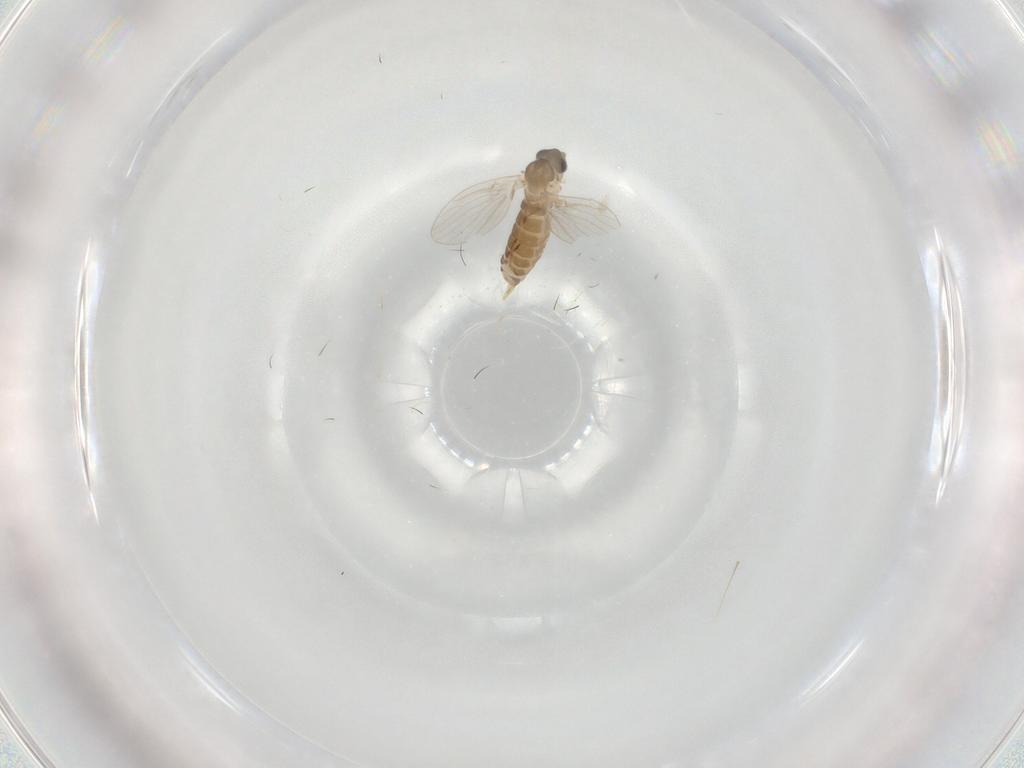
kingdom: Animalia
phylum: Arthropoda
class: Insecta
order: Diptera
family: Psychodidae
